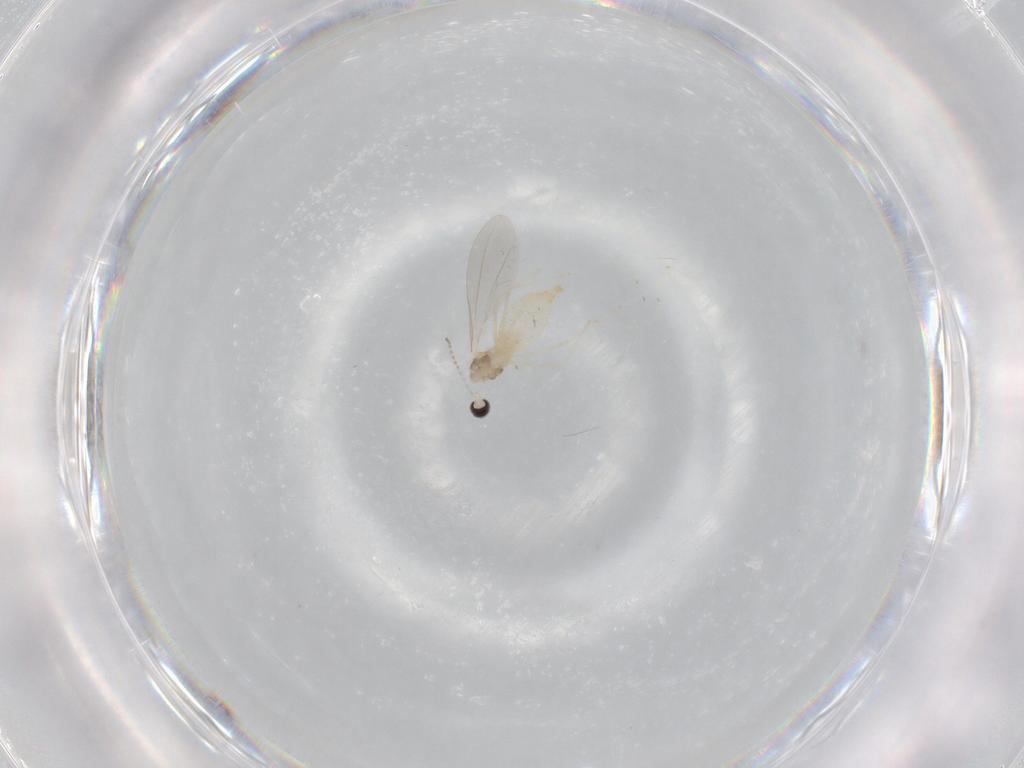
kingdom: Animalia
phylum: Arthropoda
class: Insecta
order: Diptera
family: Cecidomyiidae
